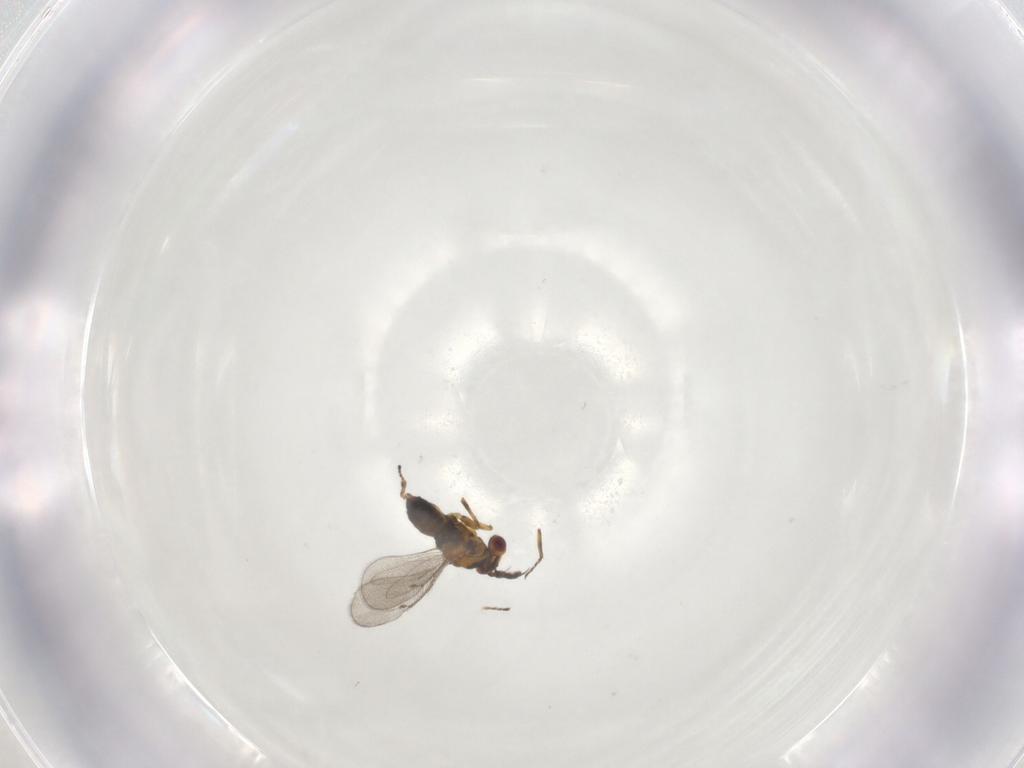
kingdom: Animalia
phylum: Arthropoda
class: Insecta
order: Hymenoptera
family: Eulophidae
